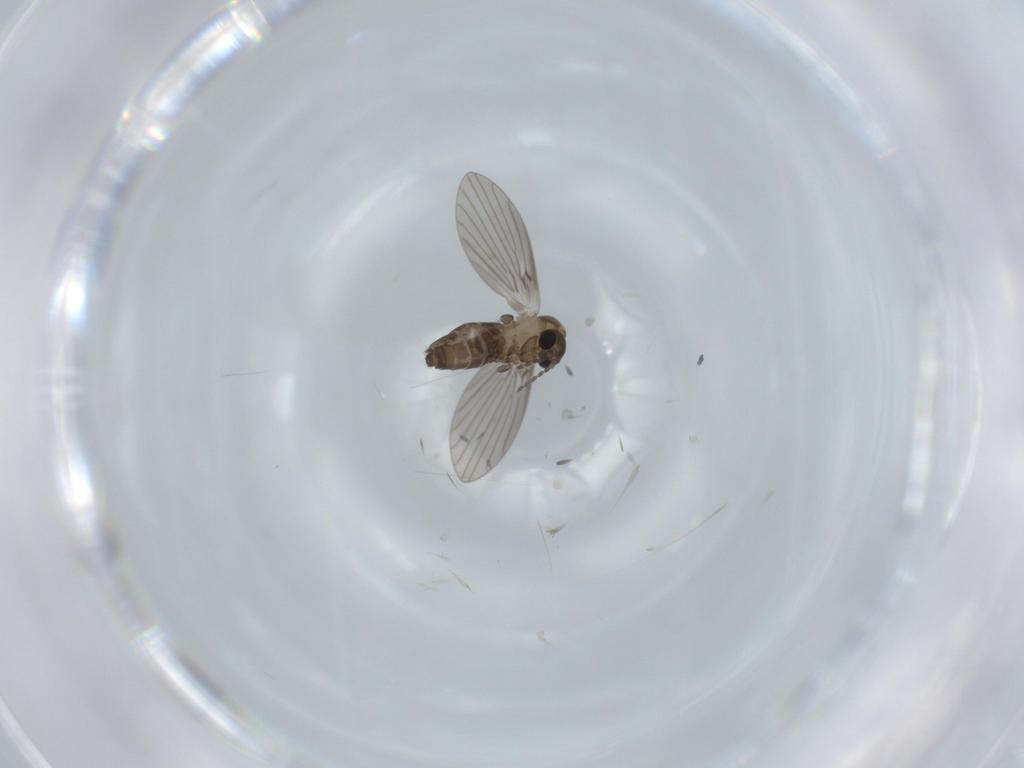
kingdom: Animalia
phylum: Arthropoda
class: Insecta
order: Diptera
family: Psychodidae
